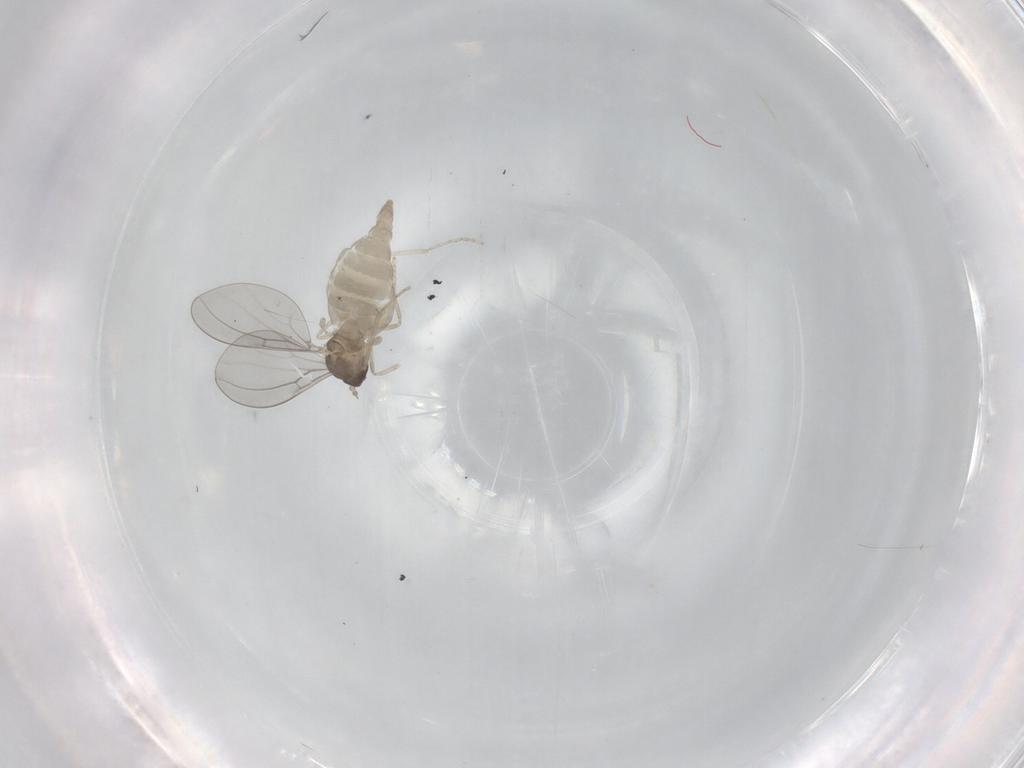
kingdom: Animalia
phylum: Arthropoda
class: Insecta
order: Diptera
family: Cecidomyiidae
